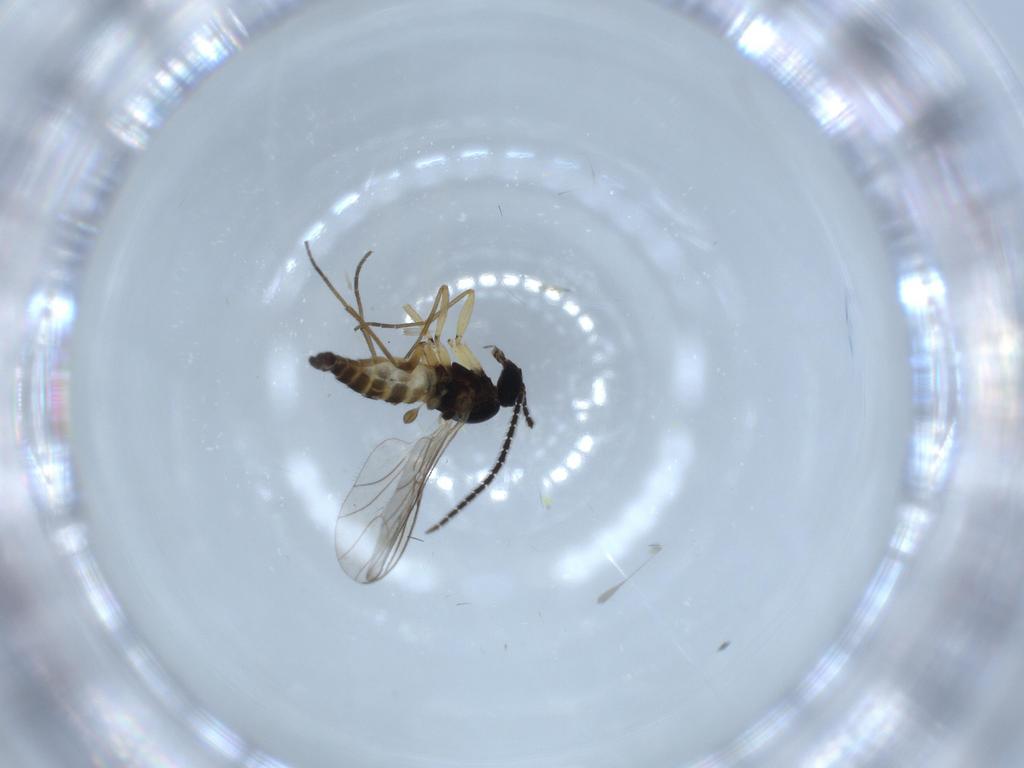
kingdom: Animalia
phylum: Arthropoda
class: Insecta
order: Diptera
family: Sciaridae
